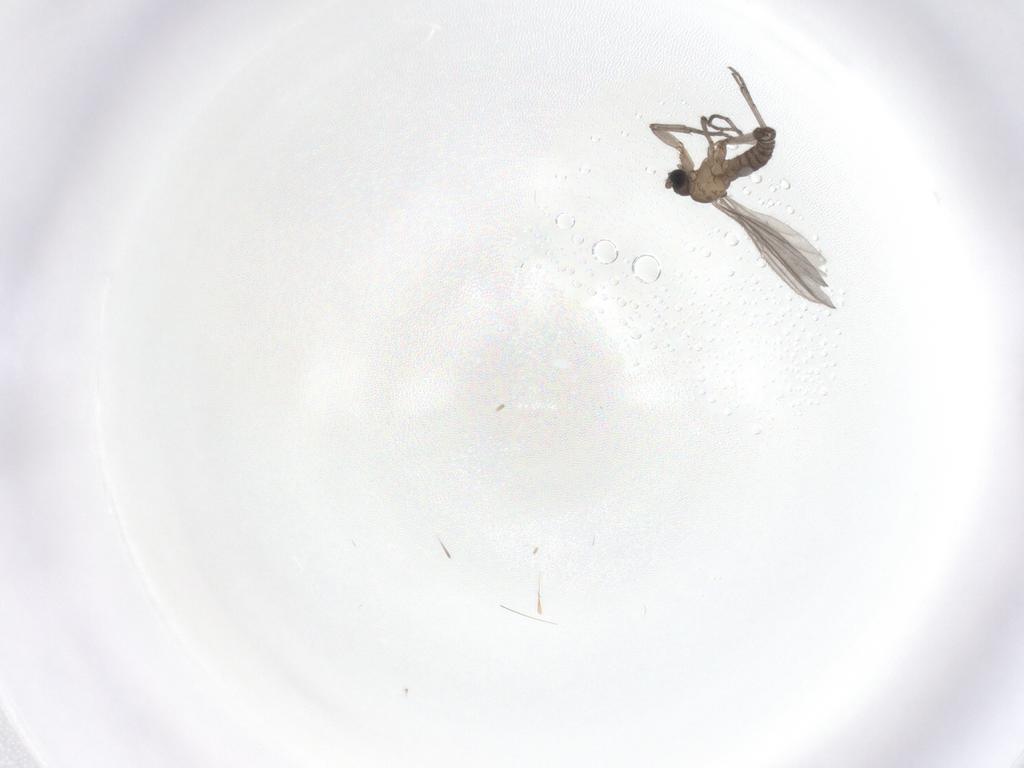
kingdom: Animalia
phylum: Arthropoda
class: Insecta
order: Diptera
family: Sciaridae
